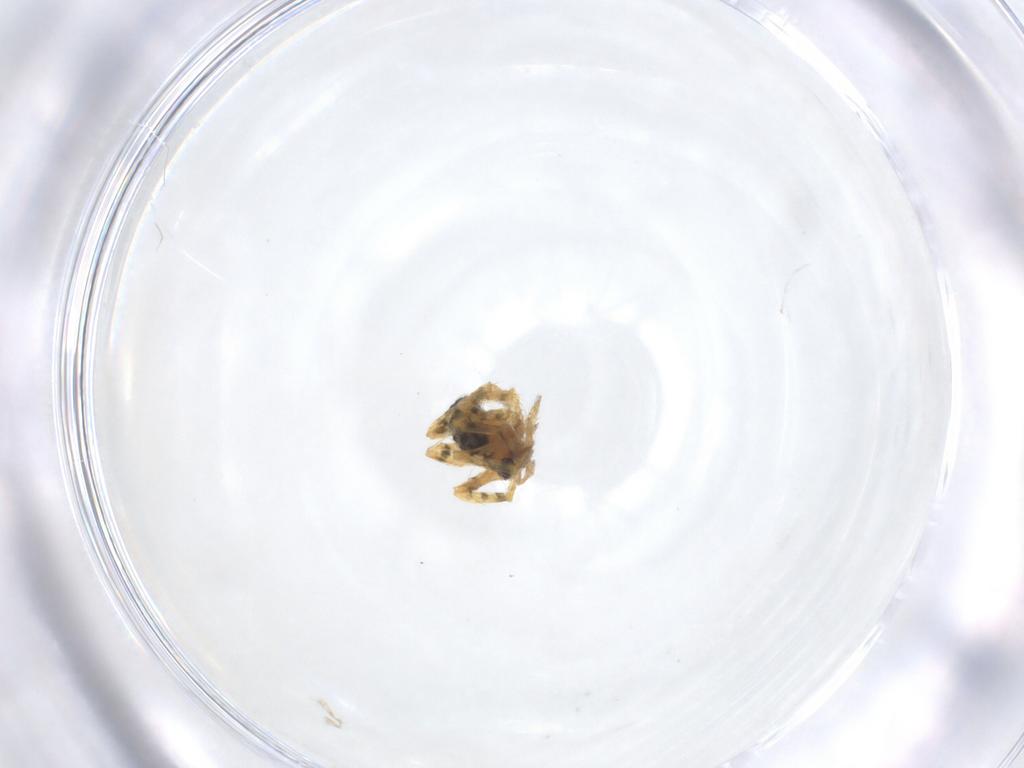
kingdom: Animalia
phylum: Arthropoda
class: Arachnida
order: Araneae
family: Theridiidae
